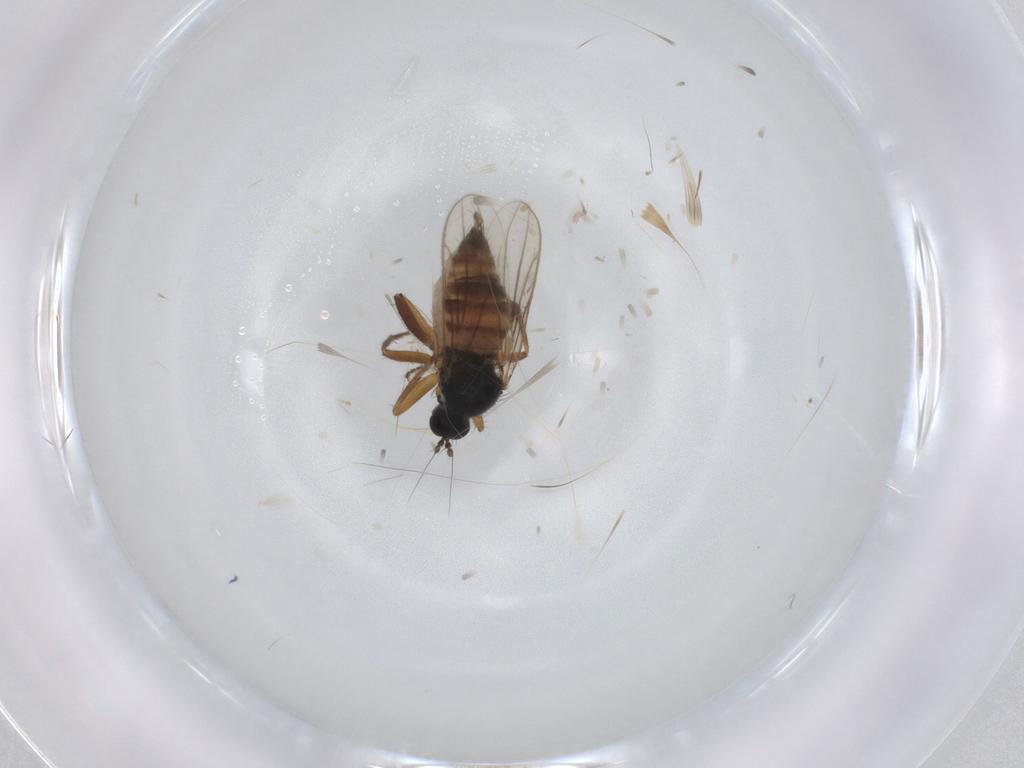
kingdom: Animalia
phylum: Arthropoda
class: Insecta
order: Diptera
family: Hybotidae
